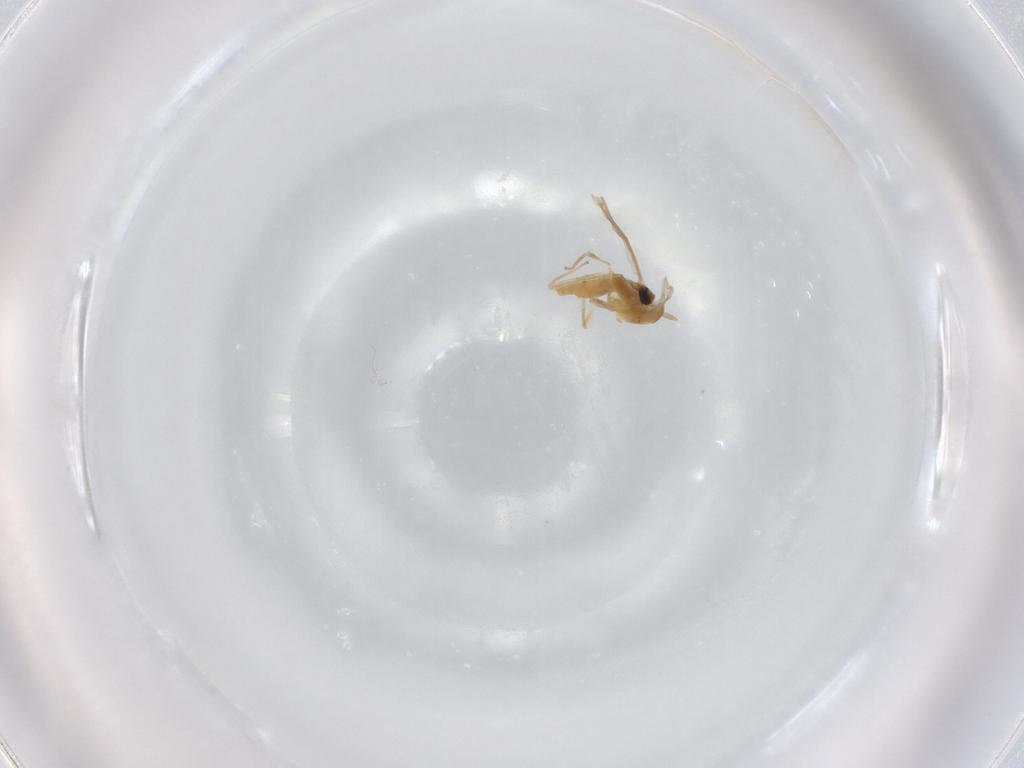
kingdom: Animalia
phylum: Arthropoda
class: Insecta
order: Diptera
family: Chironomidae
